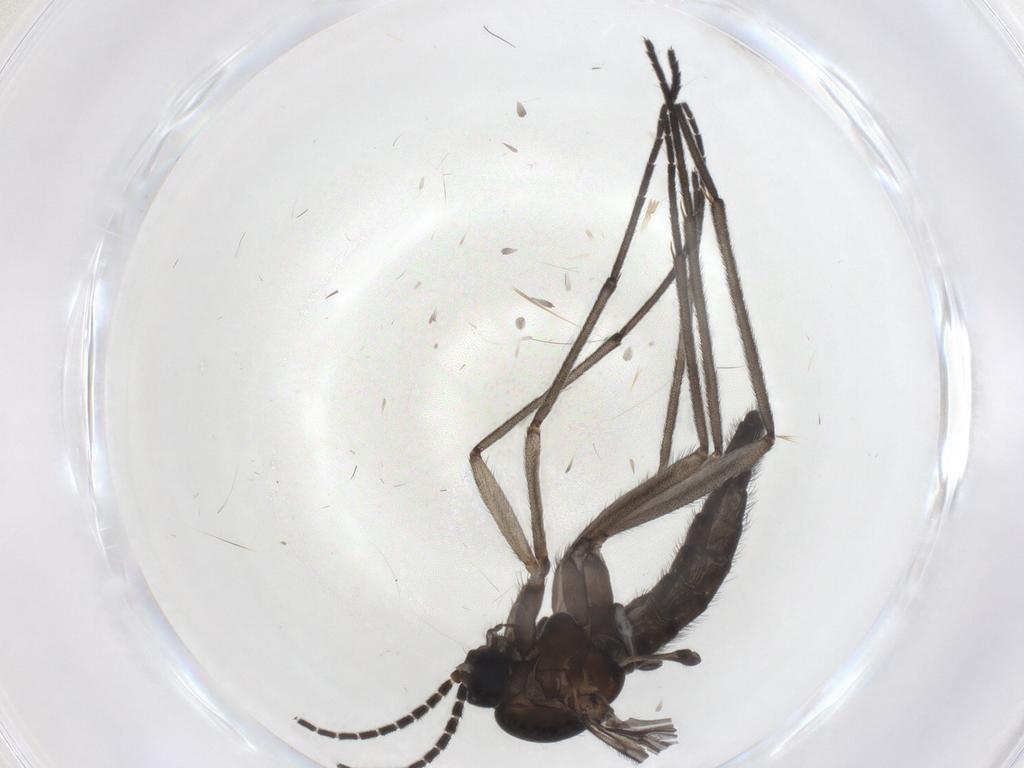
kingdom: Animalia
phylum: Arthropoda
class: Insecta
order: Diptera
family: Sciaridae
